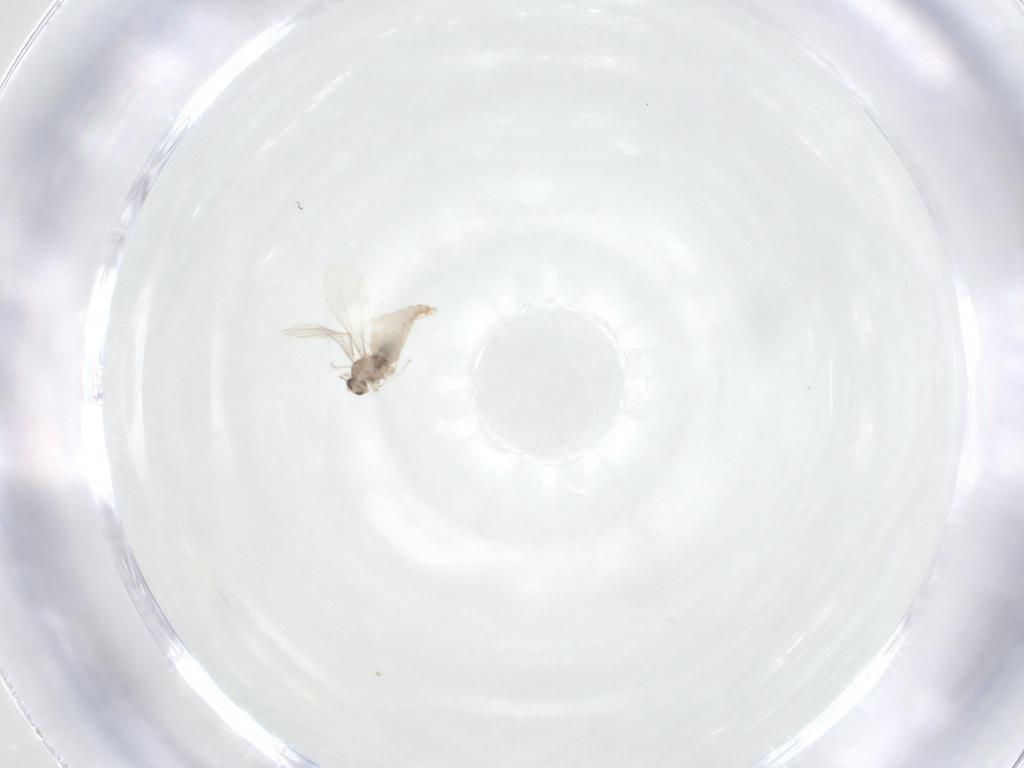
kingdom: Animalia
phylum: Arthropoda
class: Insecta
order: Diptera
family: Cecidomyiidae
